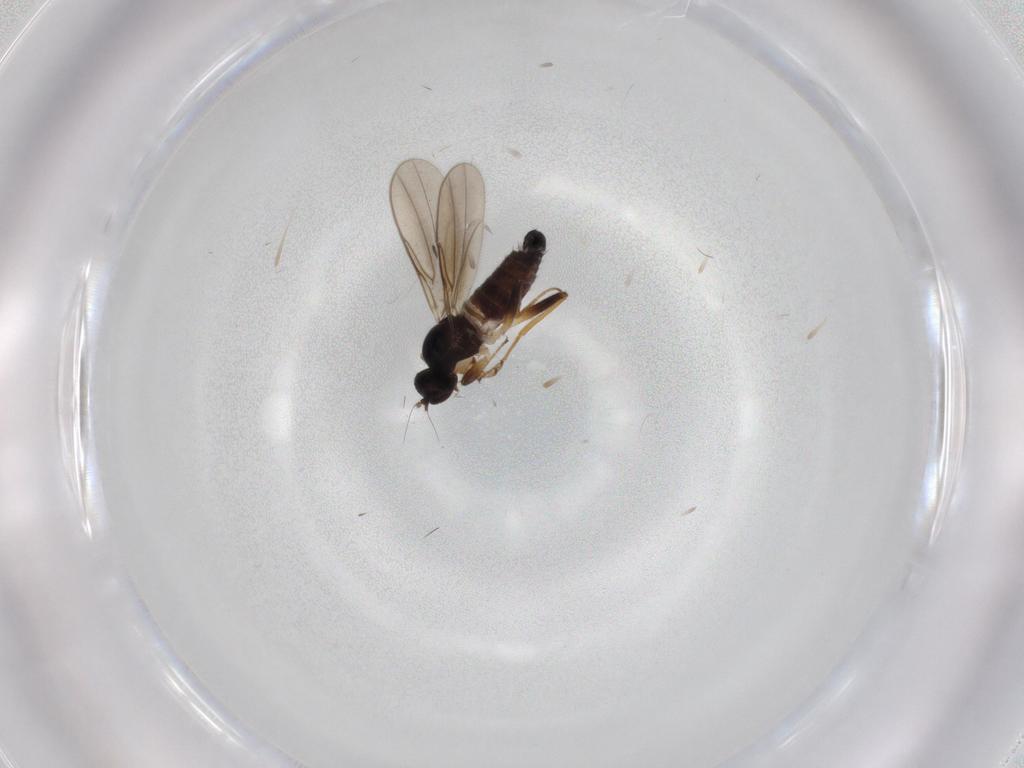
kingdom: Animalia
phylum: Arthropoda
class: Insecta
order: Diptera
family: Hybotidae
